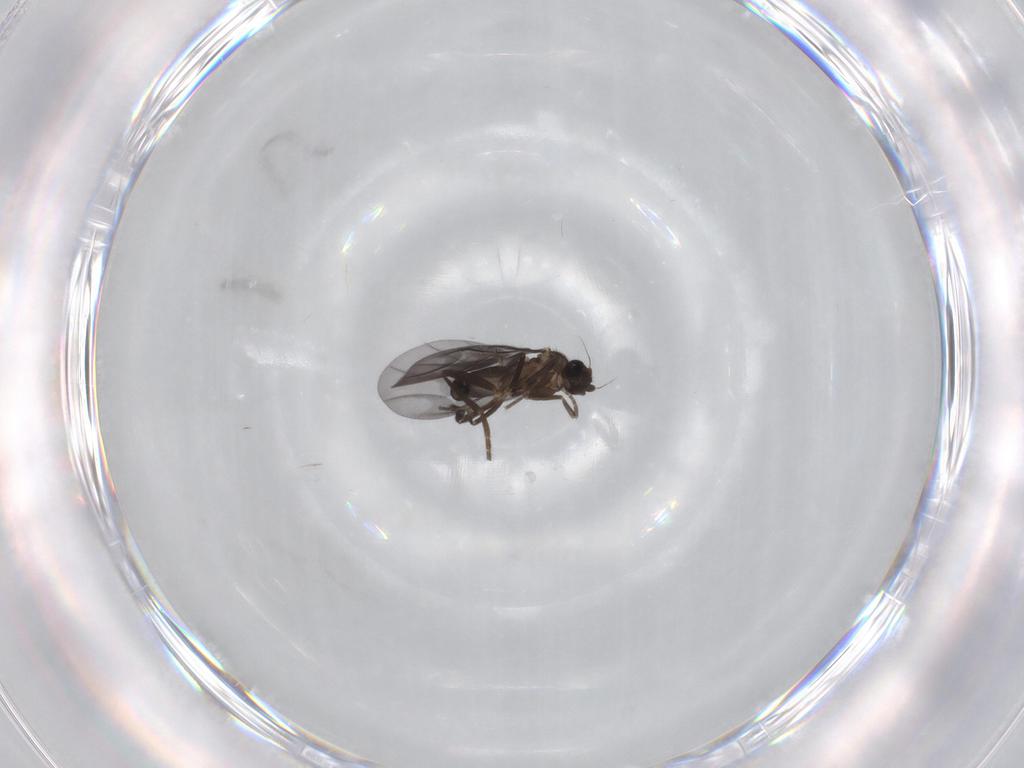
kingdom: Animalia
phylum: Arthropoda
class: Insecta
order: Diptera
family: Phoridae
